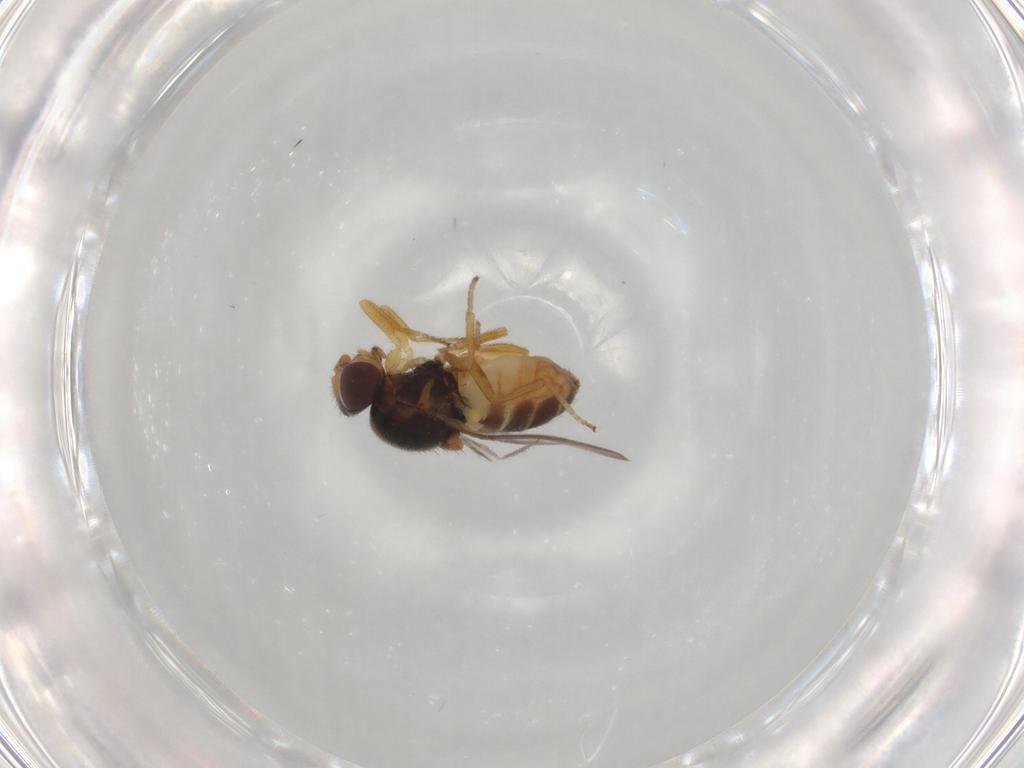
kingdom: Animalia
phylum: Arthropoda
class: Insecta
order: Diptera
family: Chloropidae
